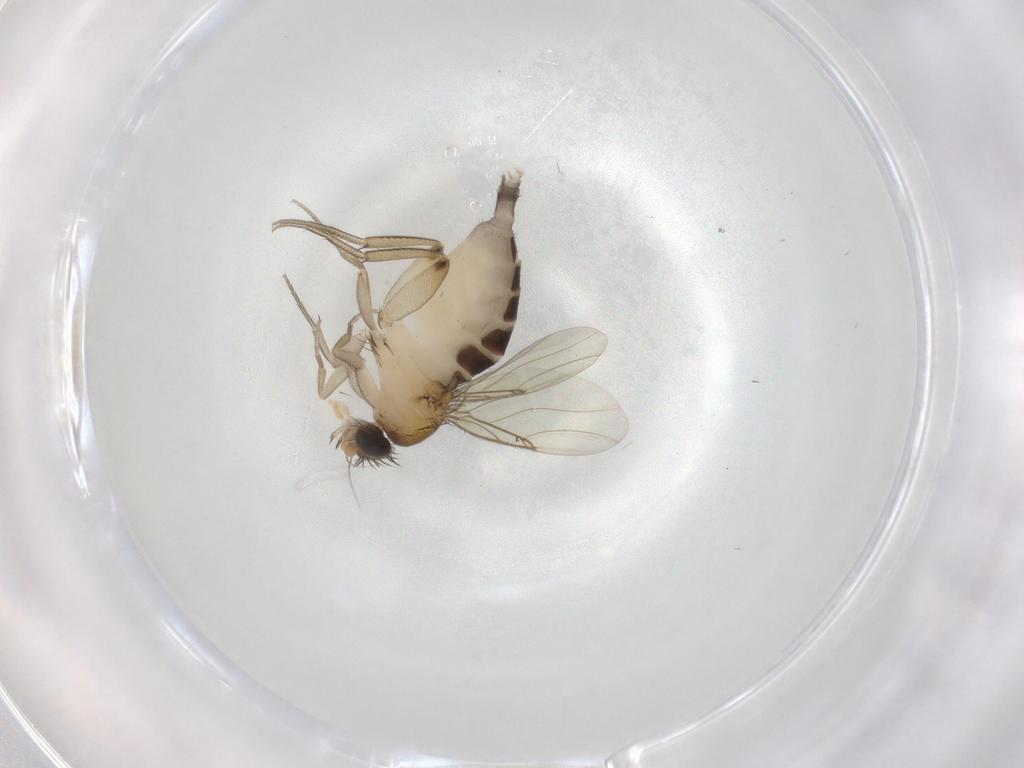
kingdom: Animalia
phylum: Arthropoda
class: Insecta
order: Diptera
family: Phoridae
